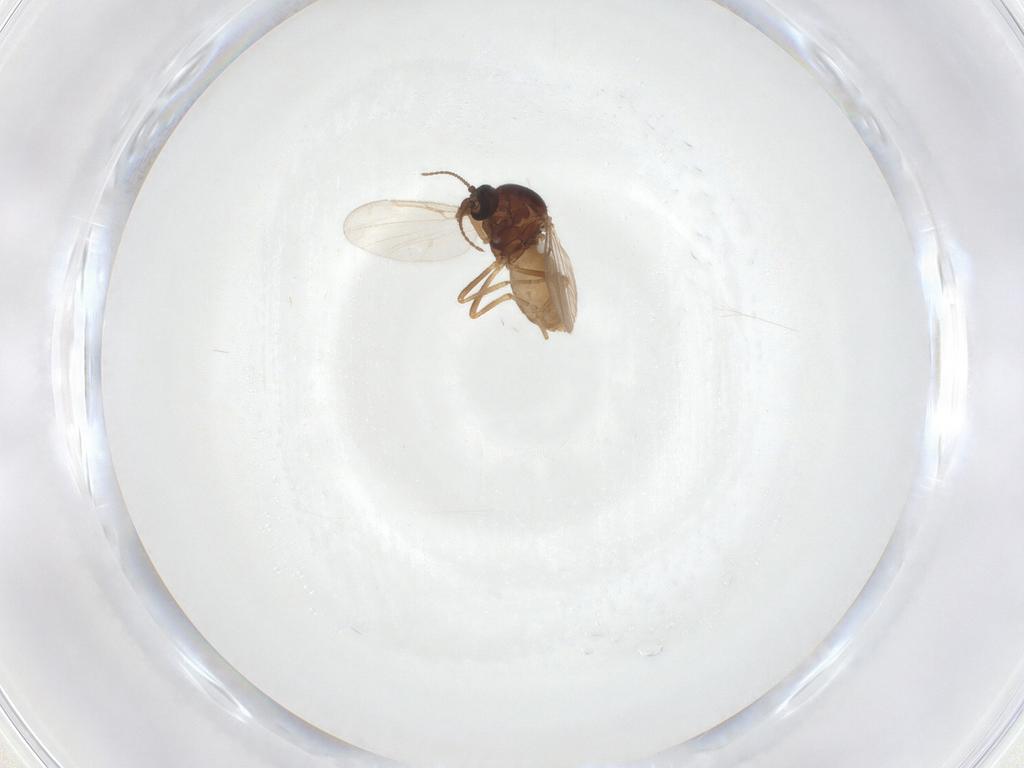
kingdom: Animalia
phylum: Arthropoda
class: Insecta
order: Diptera
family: Ceratopogonidae
